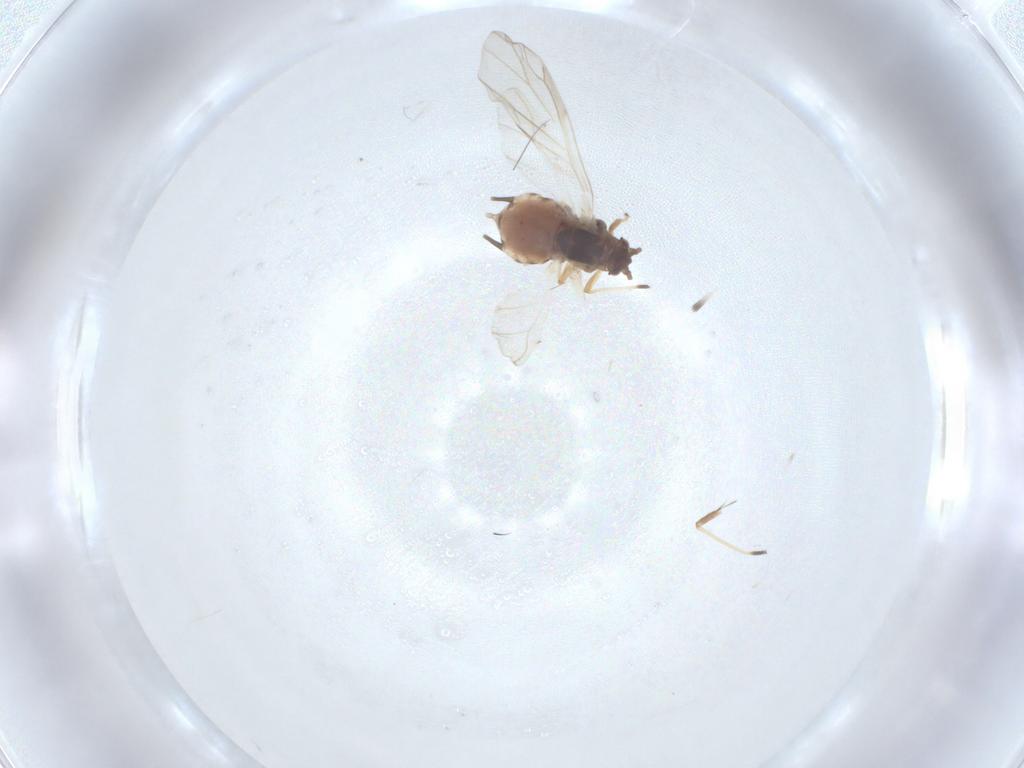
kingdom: Animalia
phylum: Arthropoda
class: Insecta
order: Hemiptera
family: Aphididae
